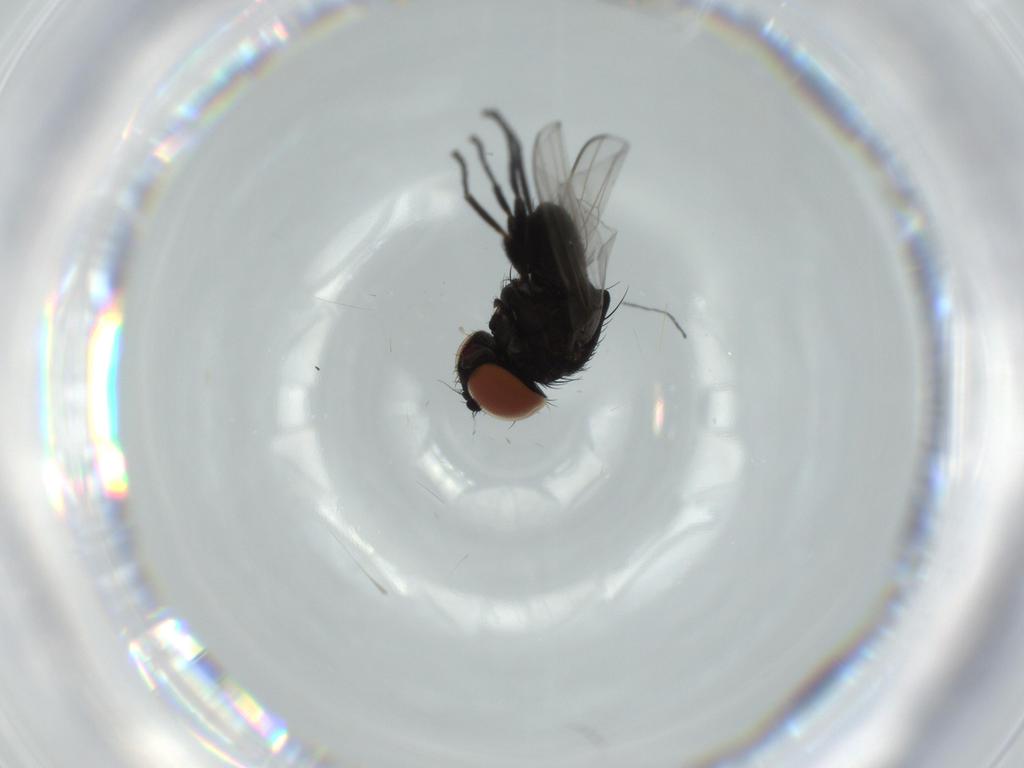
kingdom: Animalia
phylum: Arthropoda
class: Insecta
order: Diptera
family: Milichiidae
